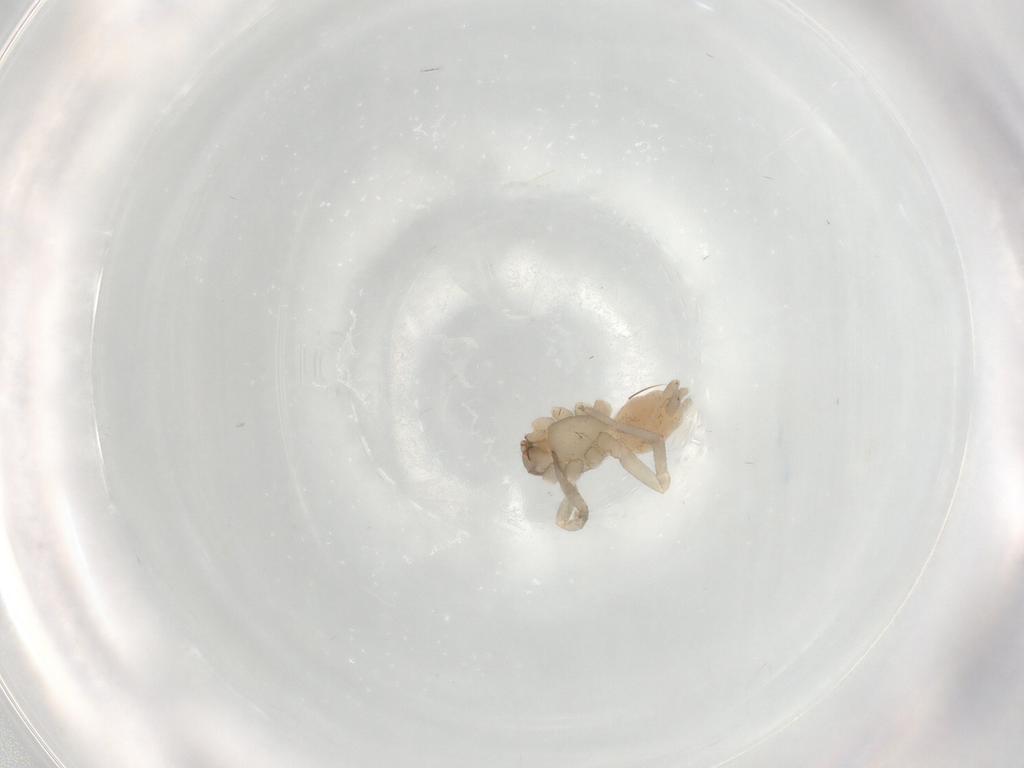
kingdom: Animalia
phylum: Arthropoda
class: Arachnida
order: Araneae
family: Gnaphosidae
